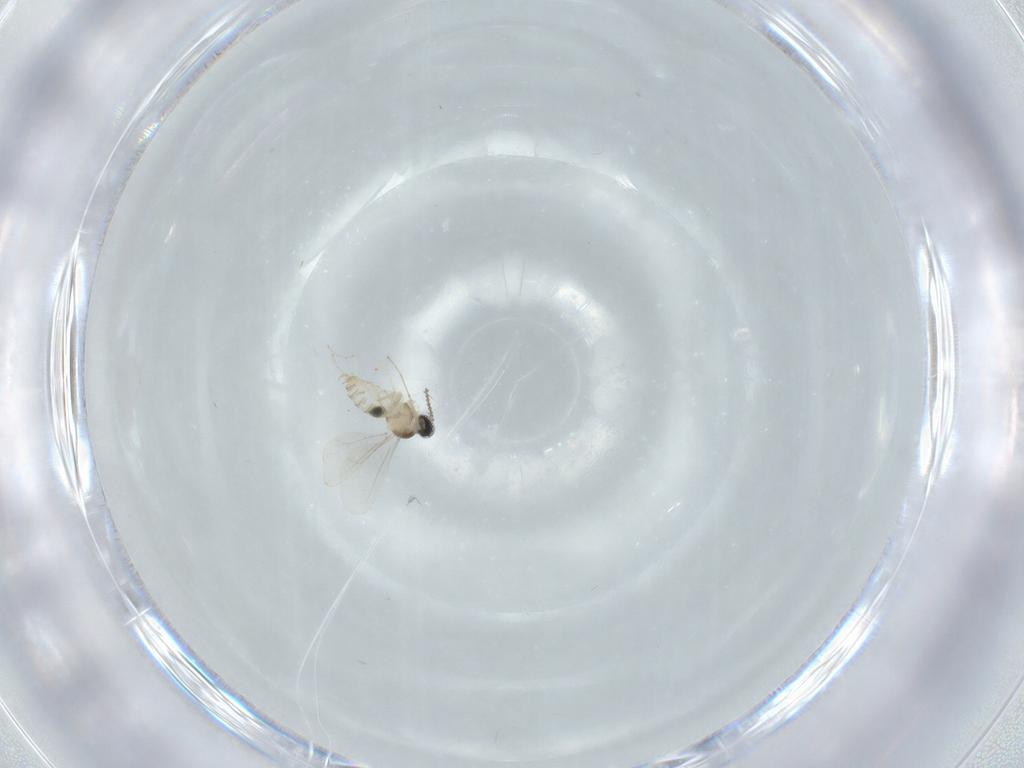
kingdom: Animalia
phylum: Arthropoda
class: Insecta
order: Diptera
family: Cecidomyiidae
